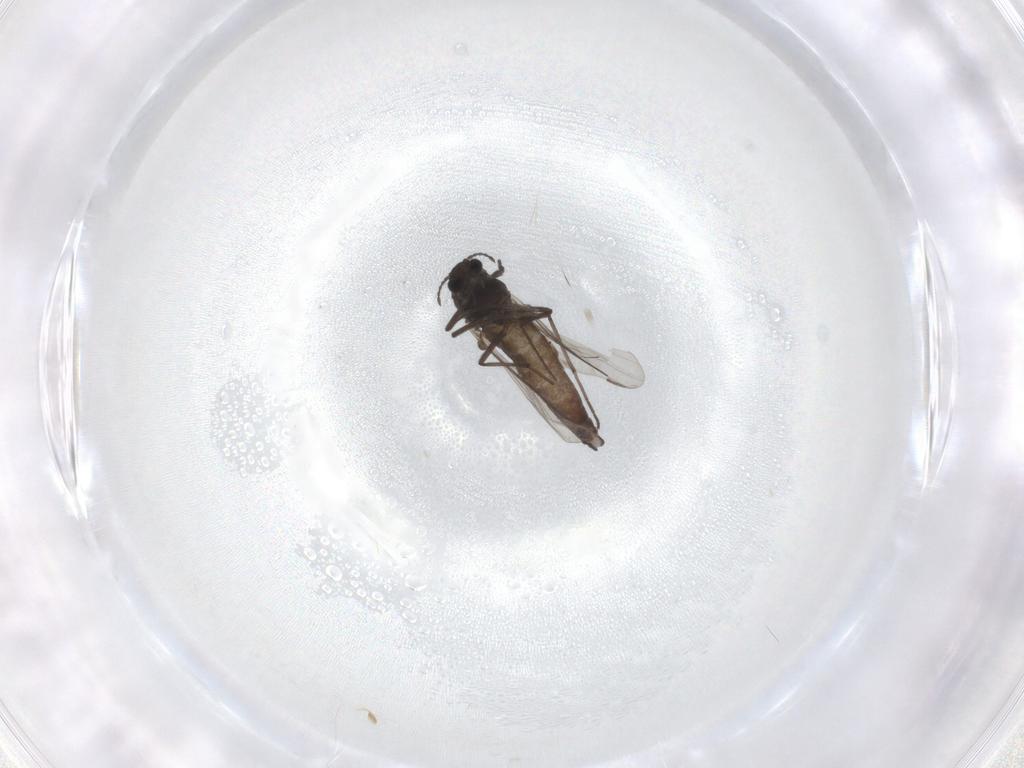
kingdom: Animalia
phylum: Arthropoda
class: Insecta
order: Diptera
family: Chironomidae
